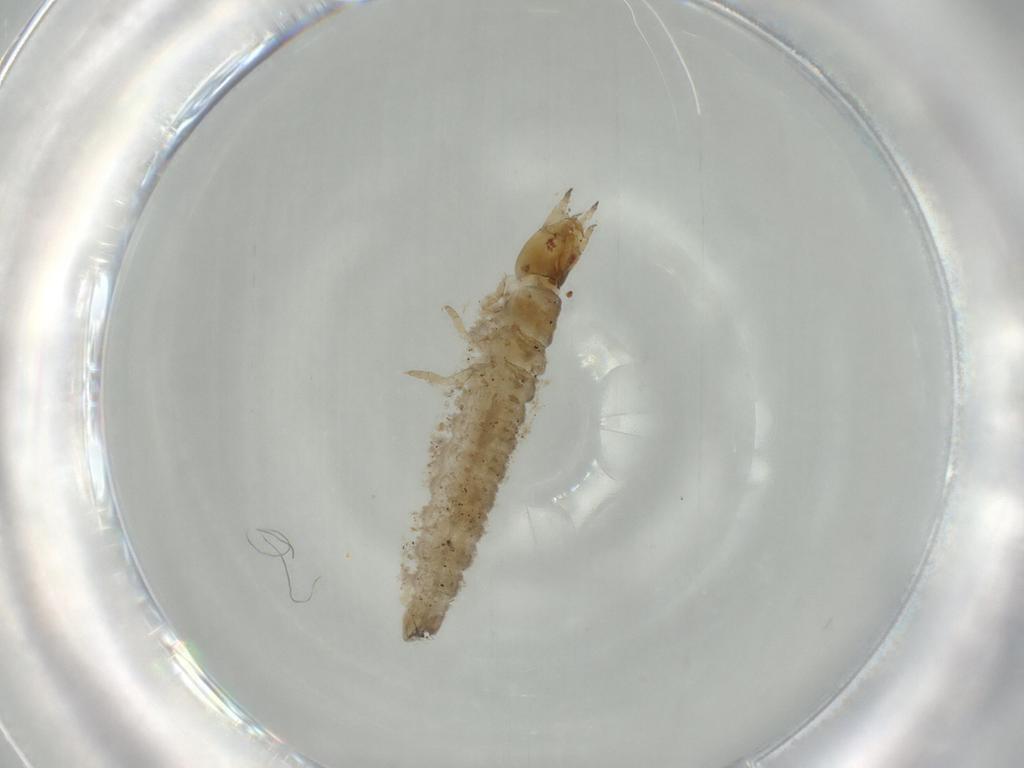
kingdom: Animalia
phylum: Arthropoda
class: Insecta
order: Coleoptera
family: Hydrophilidae
